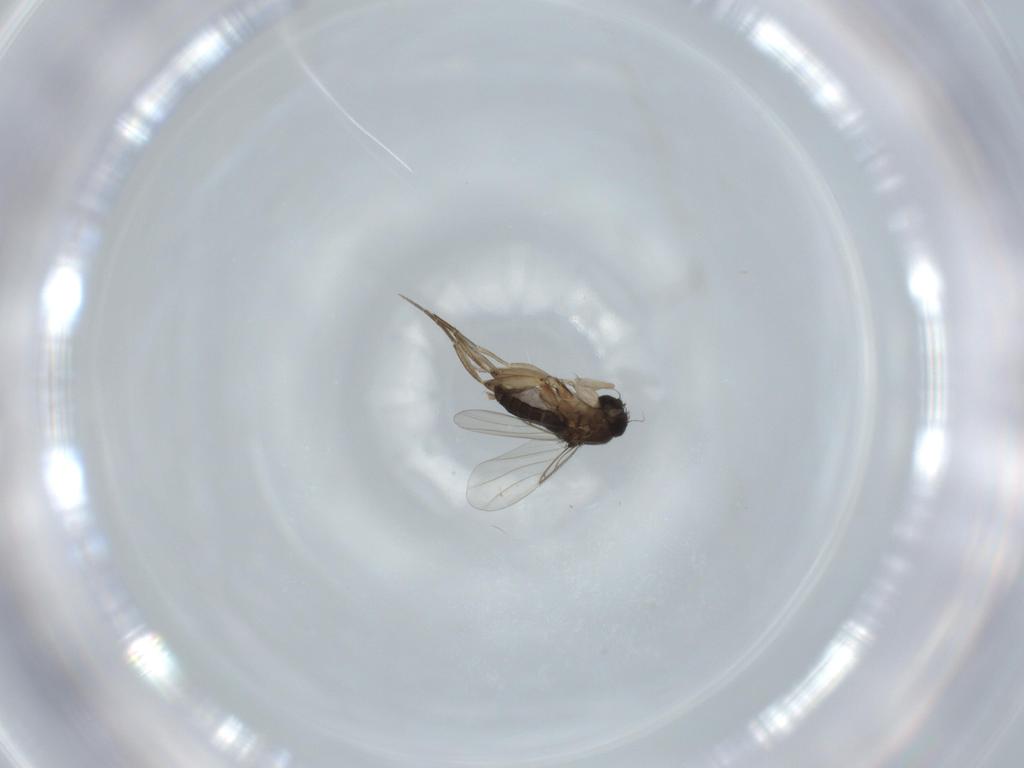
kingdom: Animalia
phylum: Arthropoda
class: Insecta
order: Diptera
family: Phoridae
